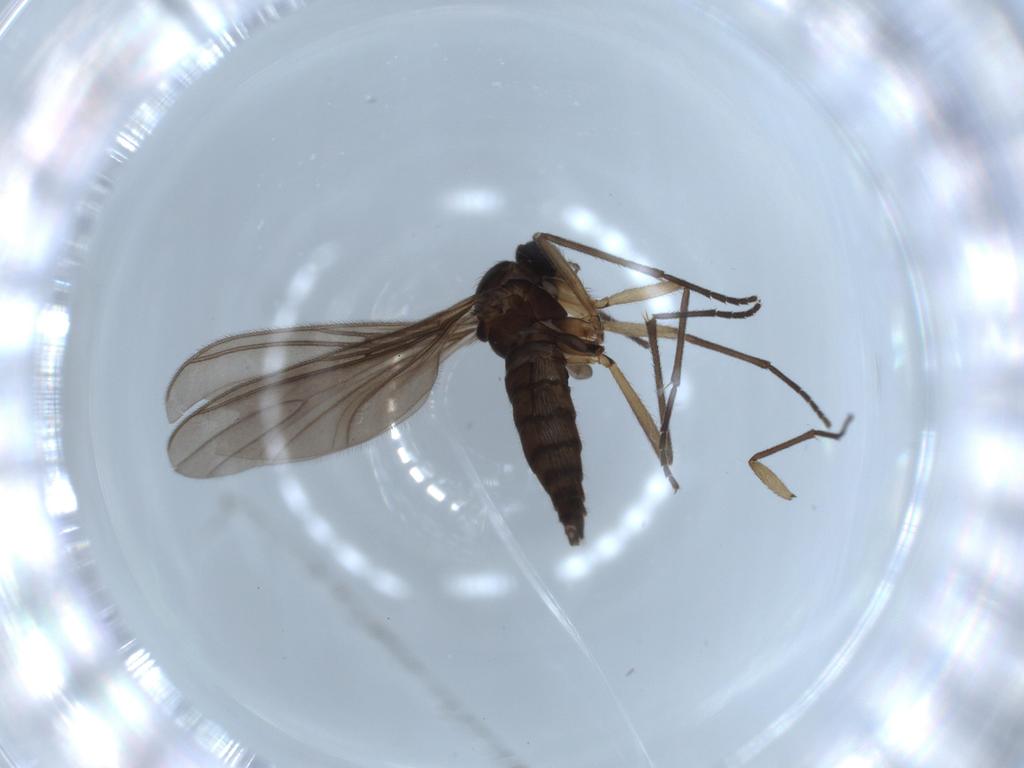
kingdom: Animalia
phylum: Arthropoda
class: Insecta
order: Diptera
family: Sciaridae
